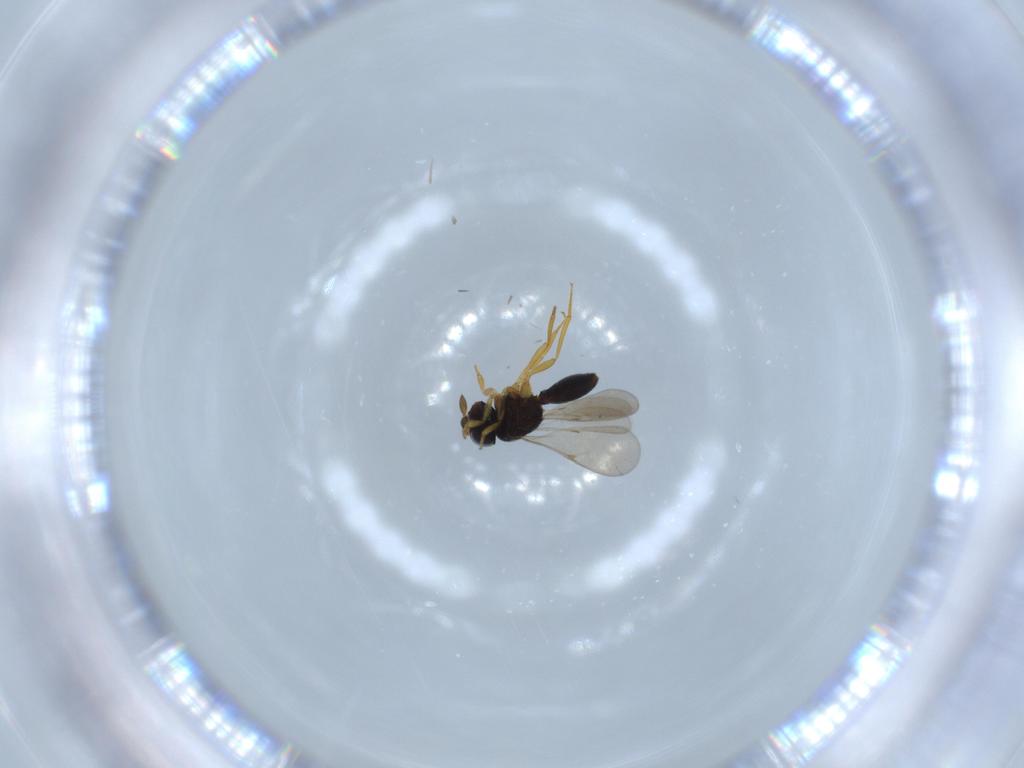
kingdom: Animalia
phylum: Arthropoda
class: Insecta
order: Hymenoptera
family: Scelionidae
